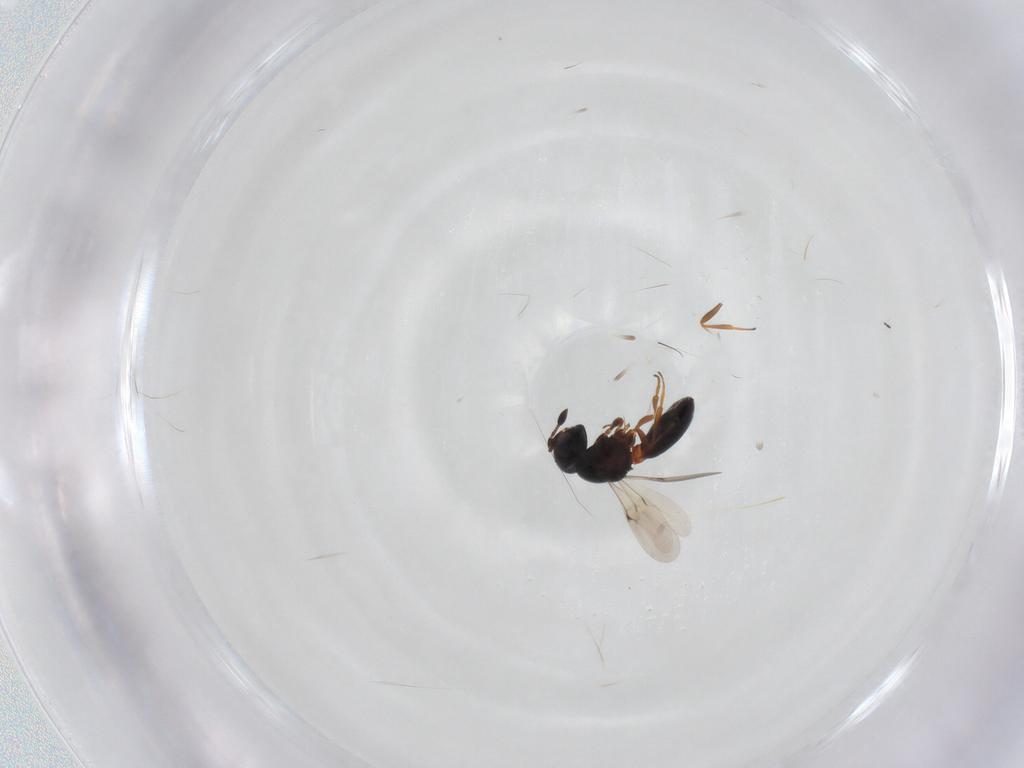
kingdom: Animalia
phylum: Arthropoda
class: Insecta
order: Hymenoptera
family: Scelionidae
